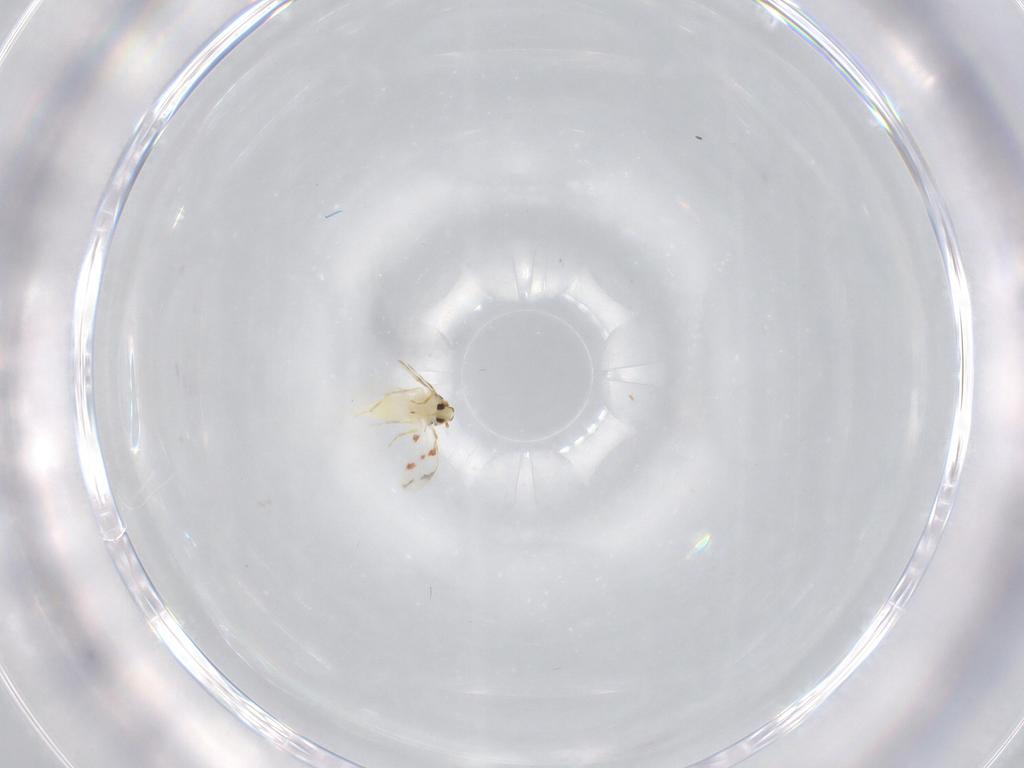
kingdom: Animalia
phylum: Arthropoda
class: Insecta
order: Hemiptera
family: Aleyrodidae
